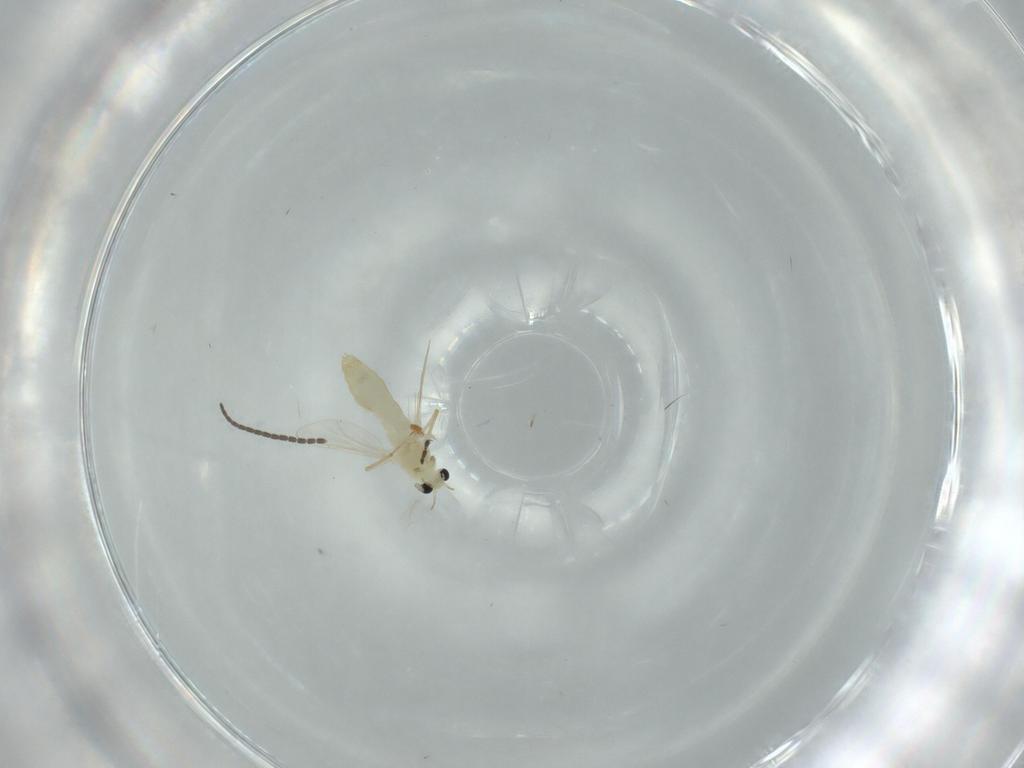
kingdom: Animalia
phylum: Arthropoda
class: Insecta
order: Diptera
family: Chironomidae
